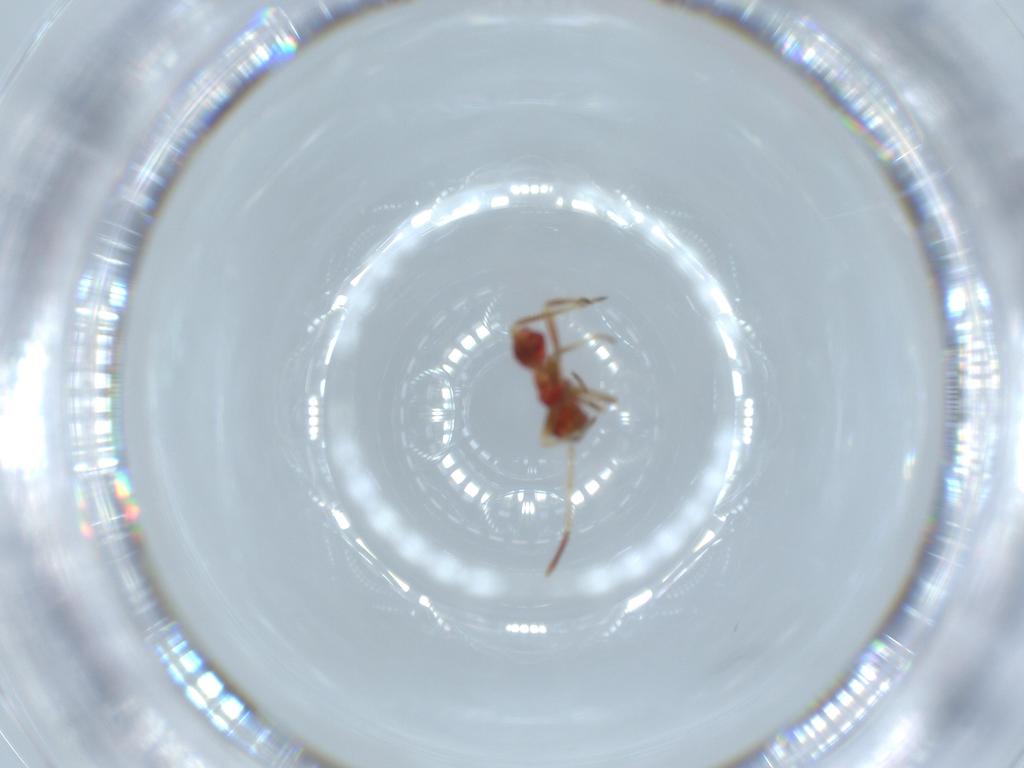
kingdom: Animalia
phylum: Arthropoda
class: Insecta
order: Hemiptera
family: Miridae
